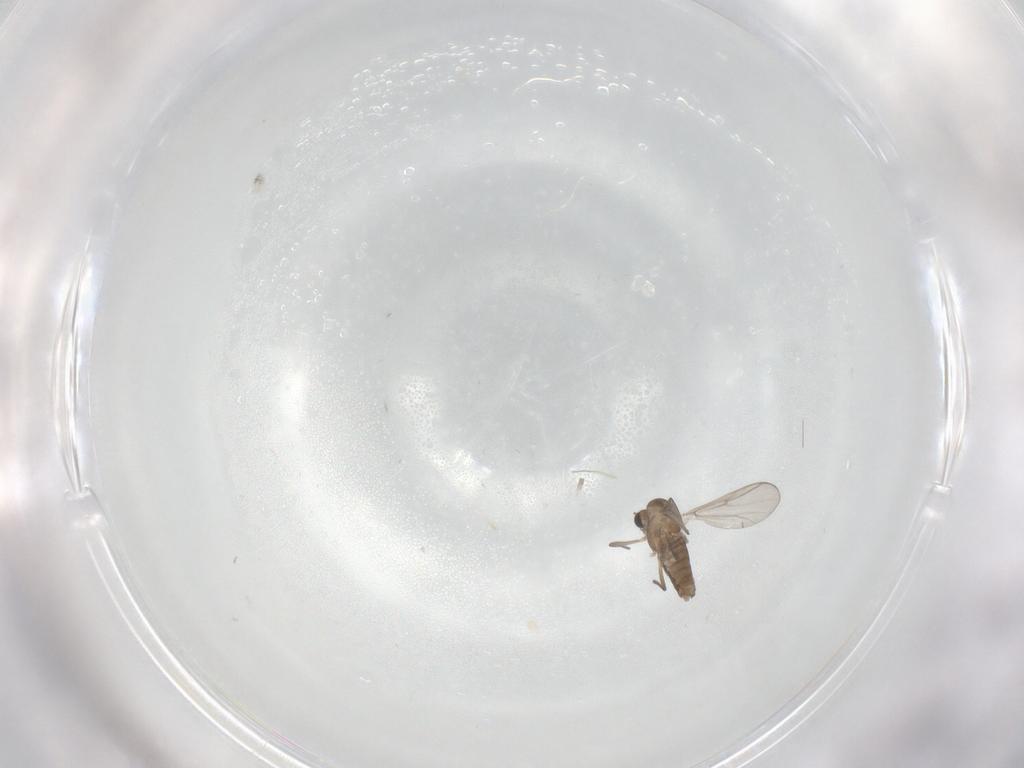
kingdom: Animalia
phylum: Arthropoda
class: Insecta
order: Diptera
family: Chironomidae
